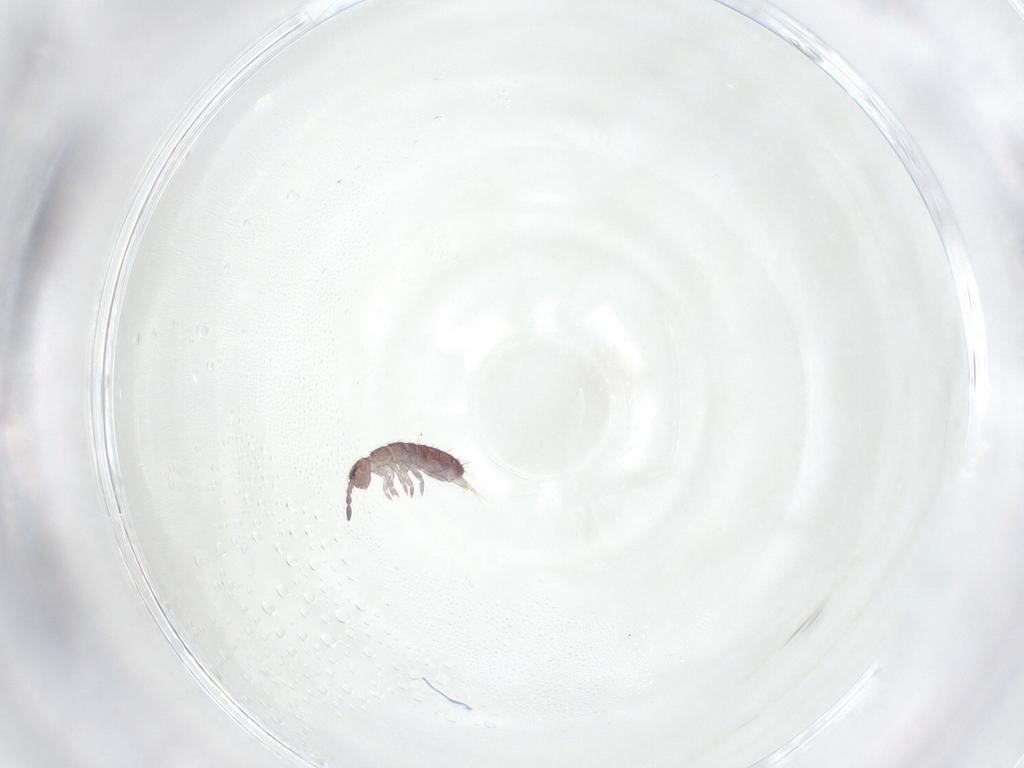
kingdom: Animalia
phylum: Arthropoda
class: Collembola
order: Entomobryomorpha
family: Isotomidae
